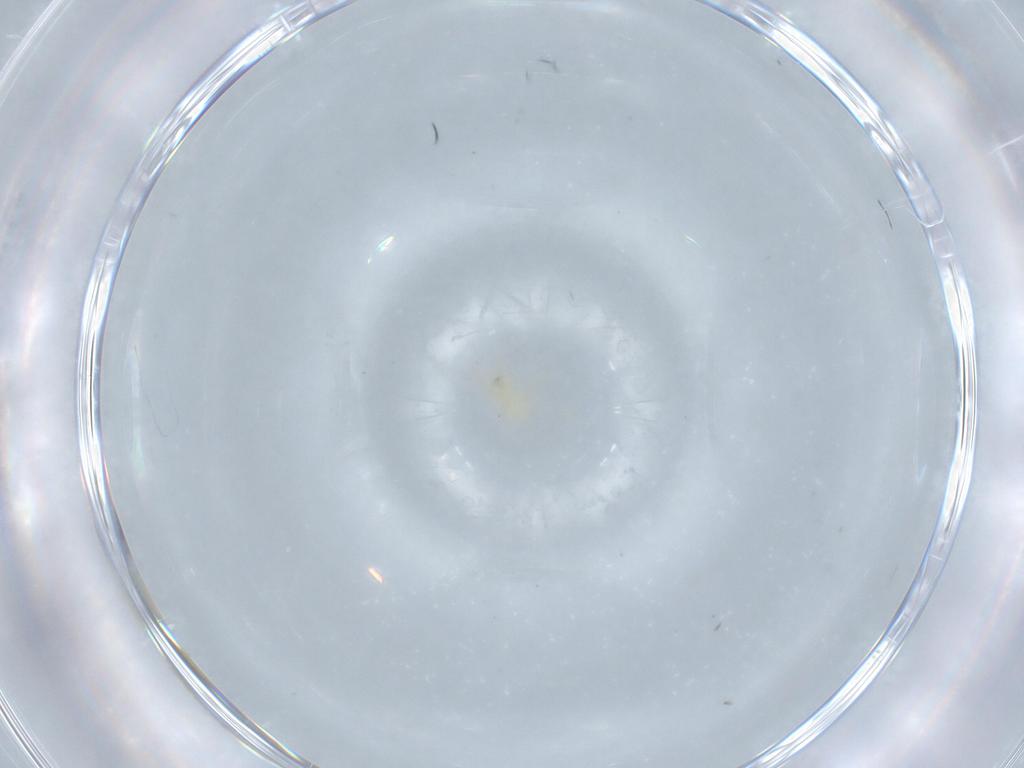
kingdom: Animalia
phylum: Arthropoda
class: Arachnida
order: Trombidiformes
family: Erythraeidae
